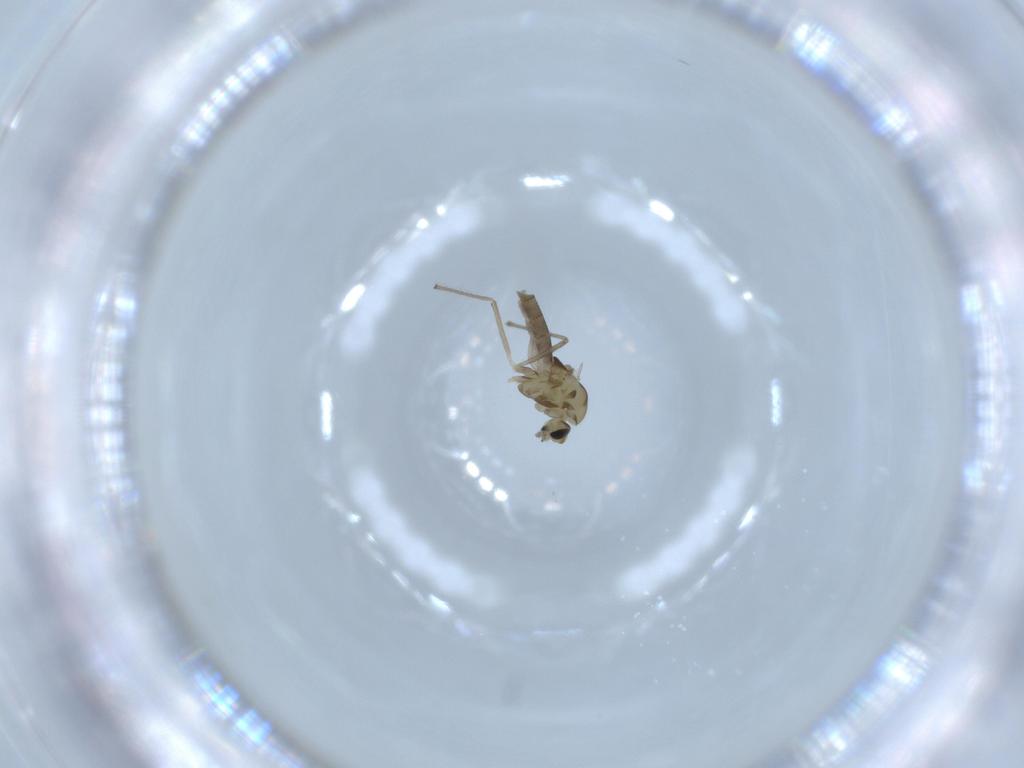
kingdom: Animalia
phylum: Arthropoda
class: Insecta
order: Diptera
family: Chironomidae
